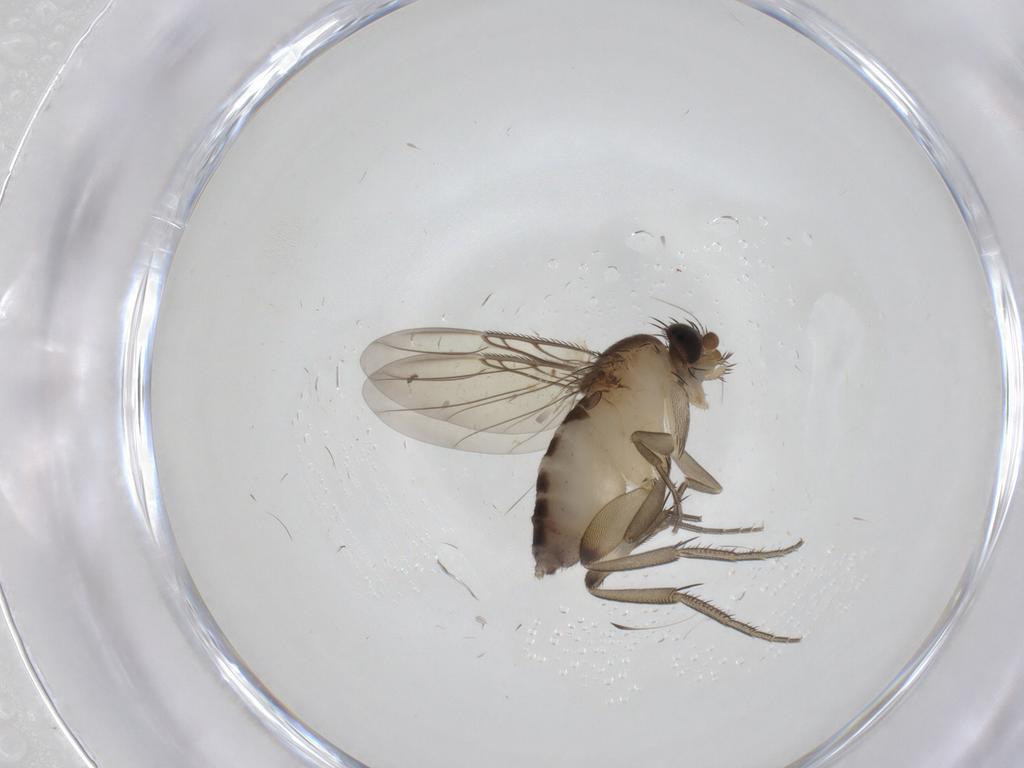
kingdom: Animalia
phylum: Arthropoda
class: Insecta
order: Diptera
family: Phoridae
